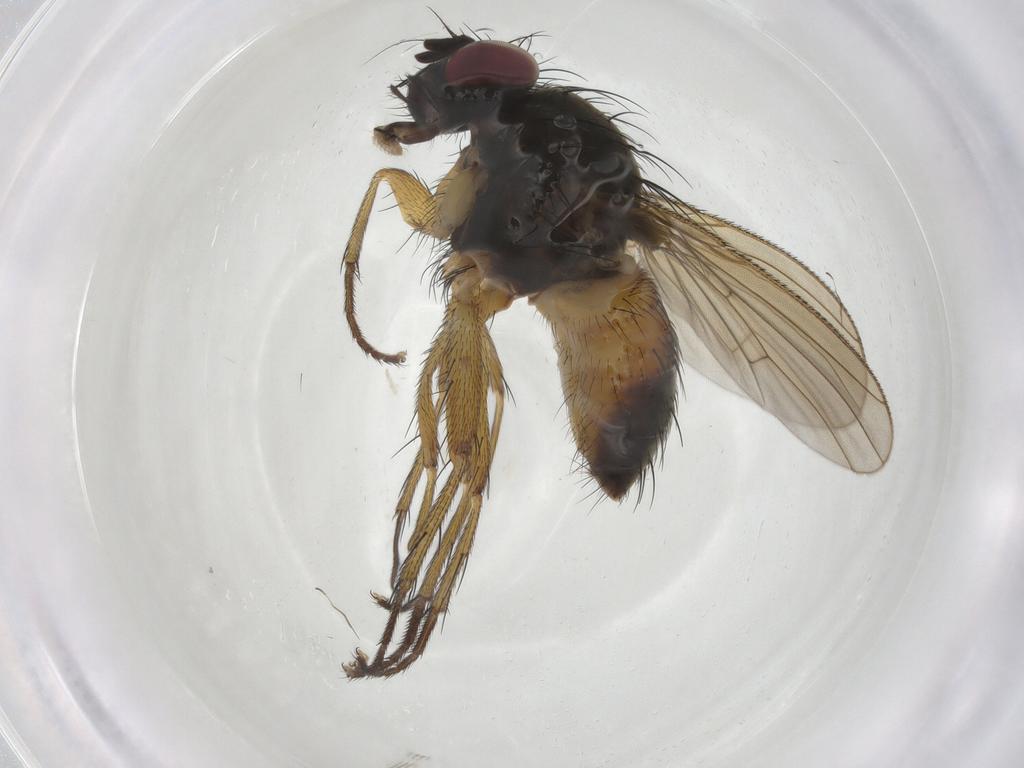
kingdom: Animalia
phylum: Arthropoda
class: Insecta
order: Diptera
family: Muscidae
